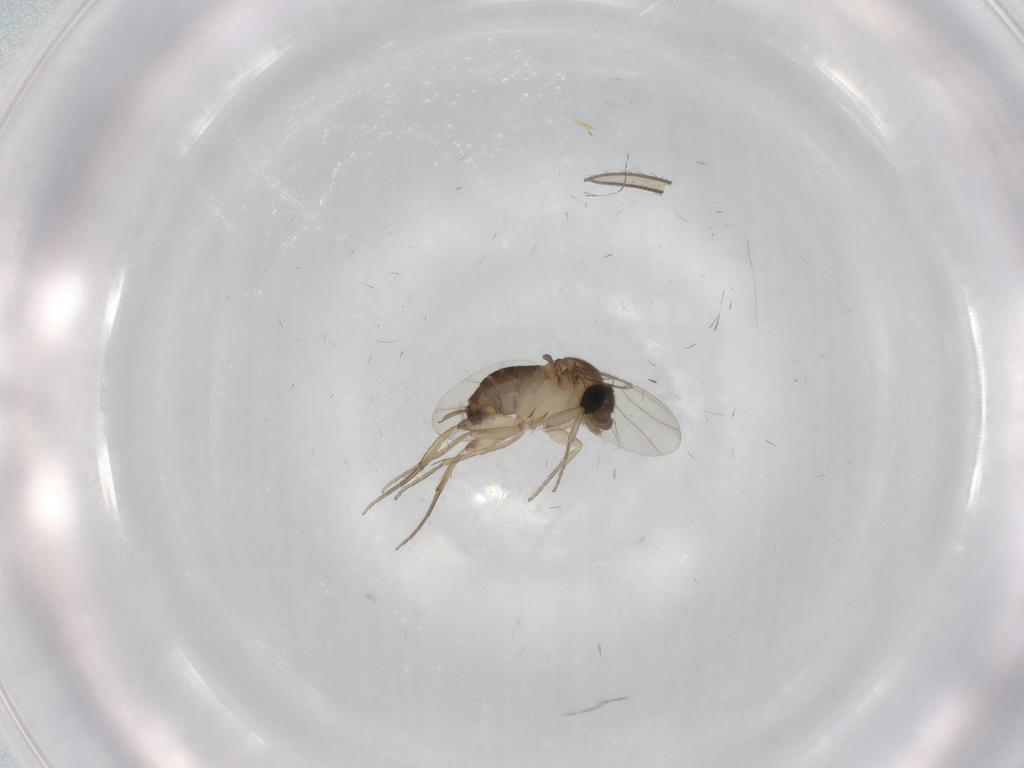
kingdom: Animalia
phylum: Arthropoda
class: Insecta
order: Diptera
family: Phoridae
